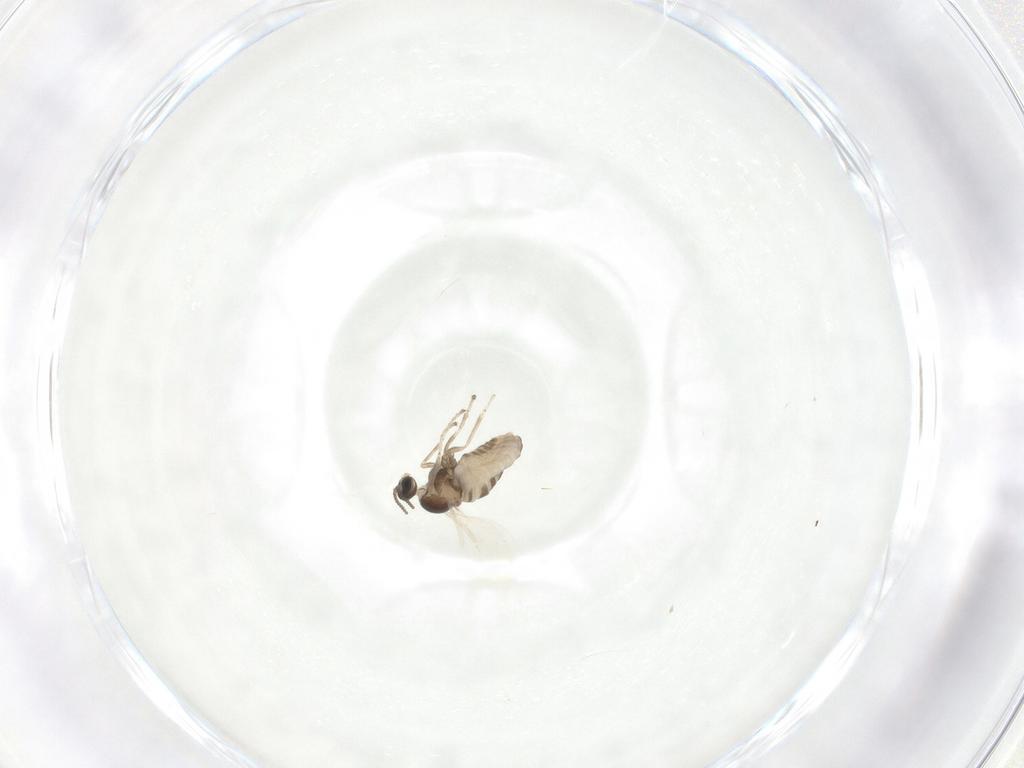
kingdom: Animalia
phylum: Arthropoda
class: Insecta
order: Diptera
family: Cecidomyiidae
